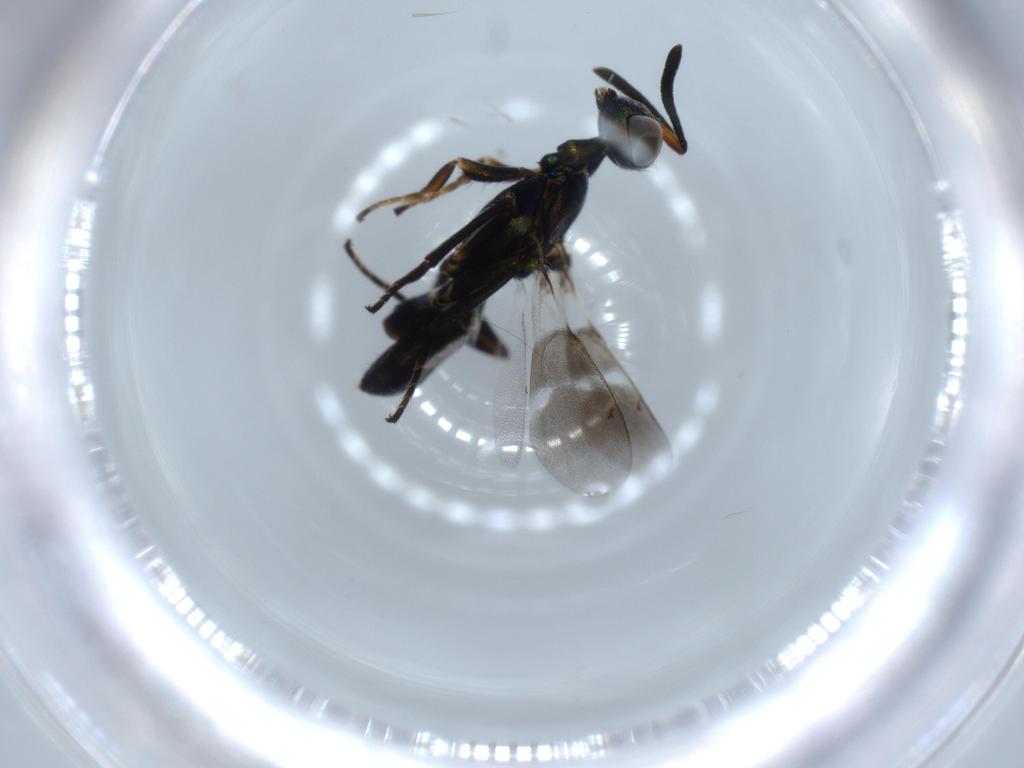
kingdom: Animalia
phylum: Arthropoda
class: Insecta
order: Hymenoptera
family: Eupelmidae
